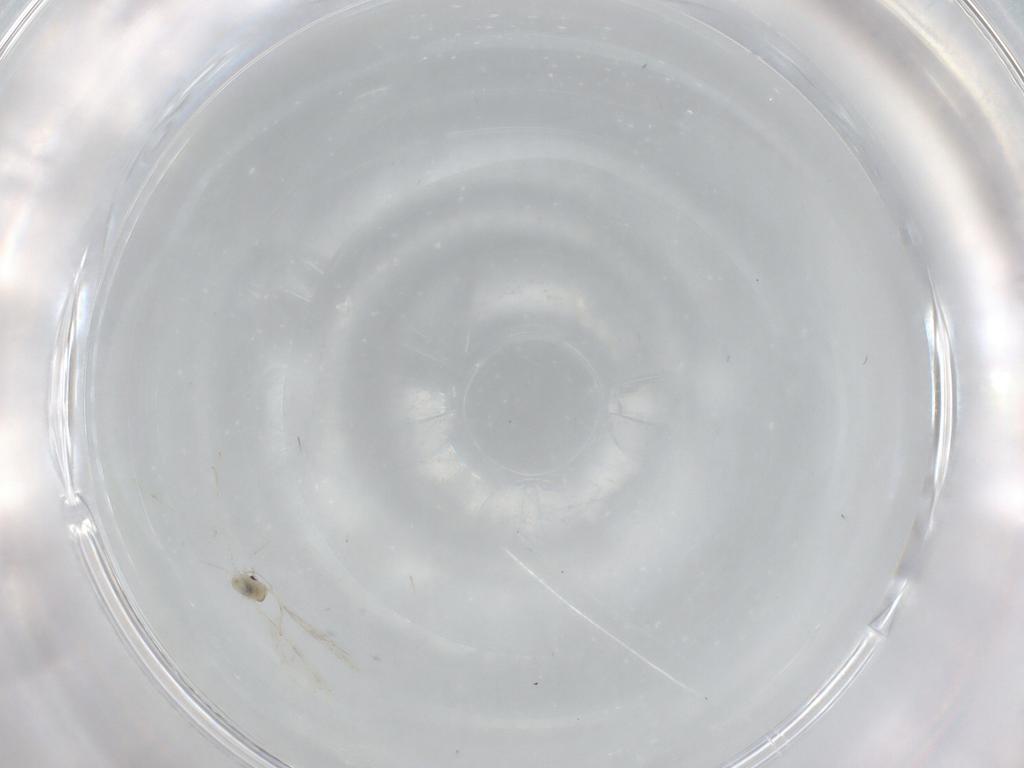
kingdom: Animalia
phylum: Arthropoda
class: Insecta
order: Diptera
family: Cecidomyiidae
